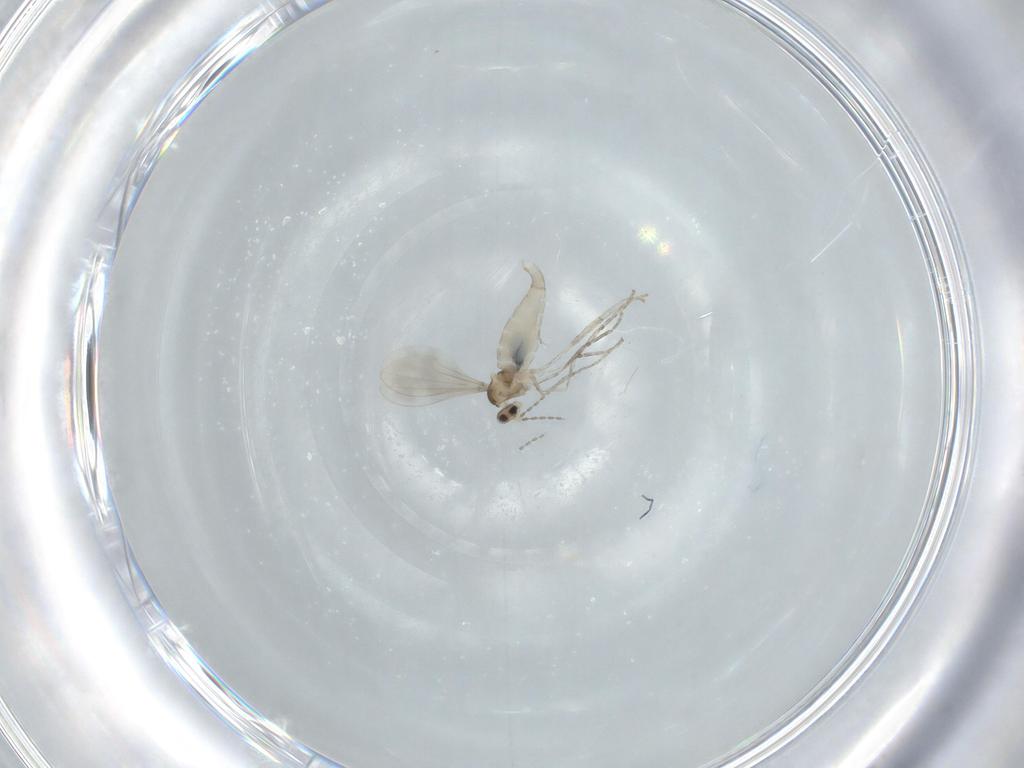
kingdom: Animalia
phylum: Arthropoda
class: Insecta
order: Diptera
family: Cecidomyiidae
